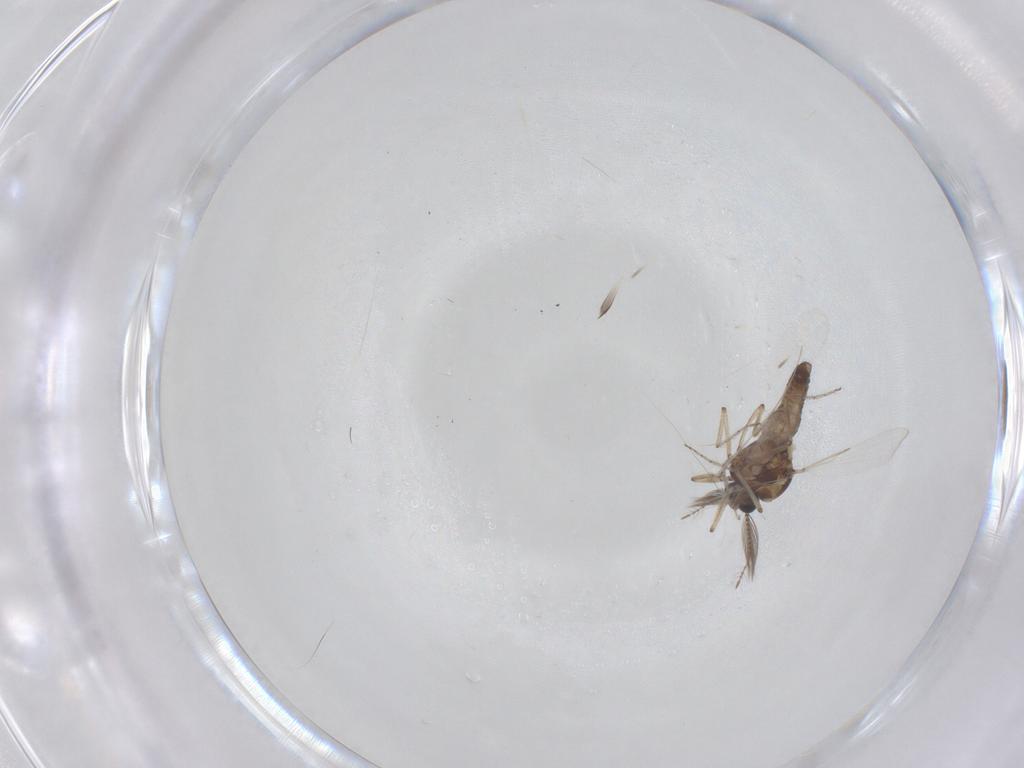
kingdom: Animalia
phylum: Arthropoda
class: Insecta
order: Diptera
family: Ceratopogonidae
